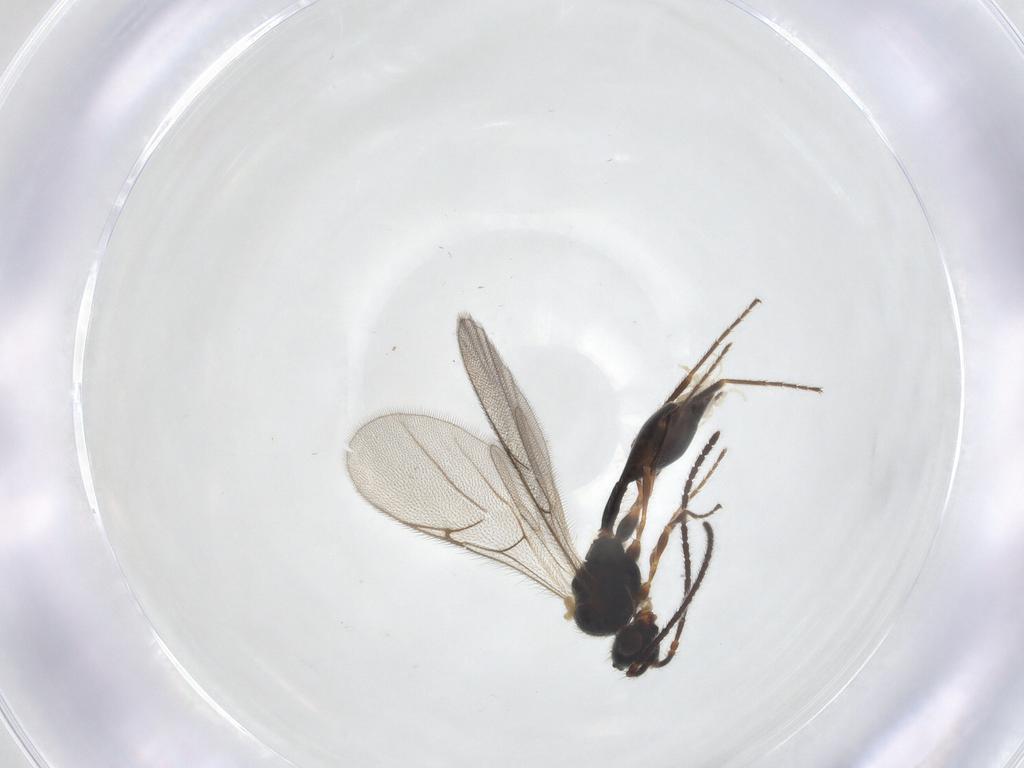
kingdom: Animalia
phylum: Arthropoda
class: Insecta
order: Hymenoptera
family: Diapriidae
